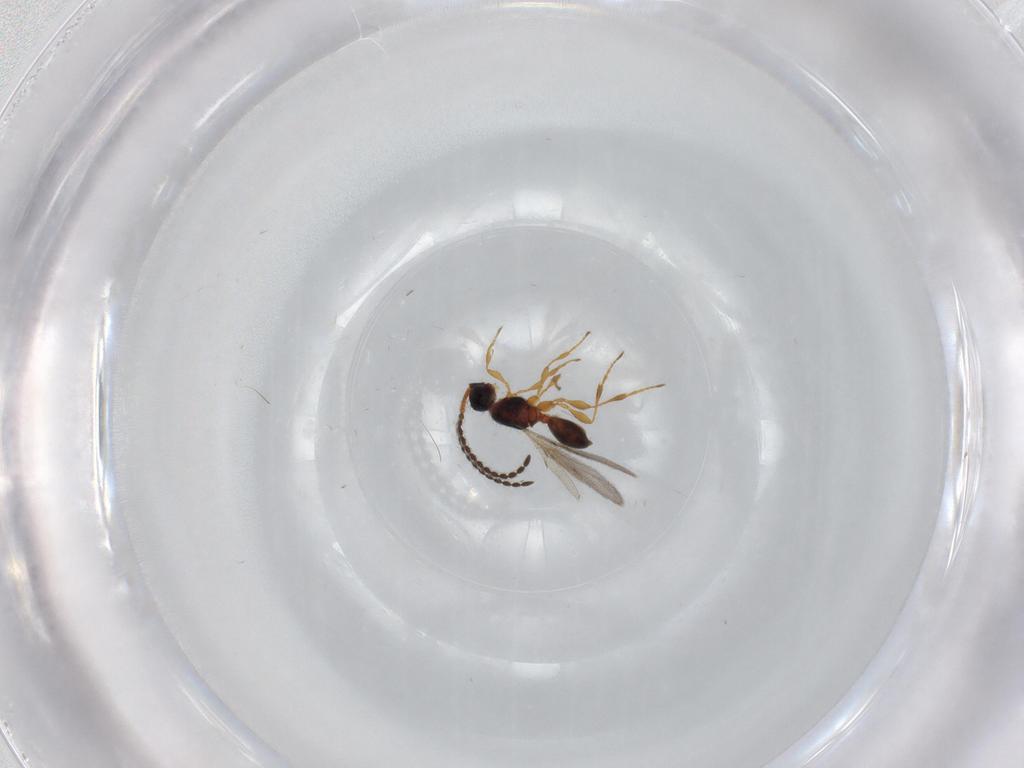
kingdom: Animalia
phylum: Arthropoda
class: Insecta
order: Hymenoptera
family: Diapriidae
